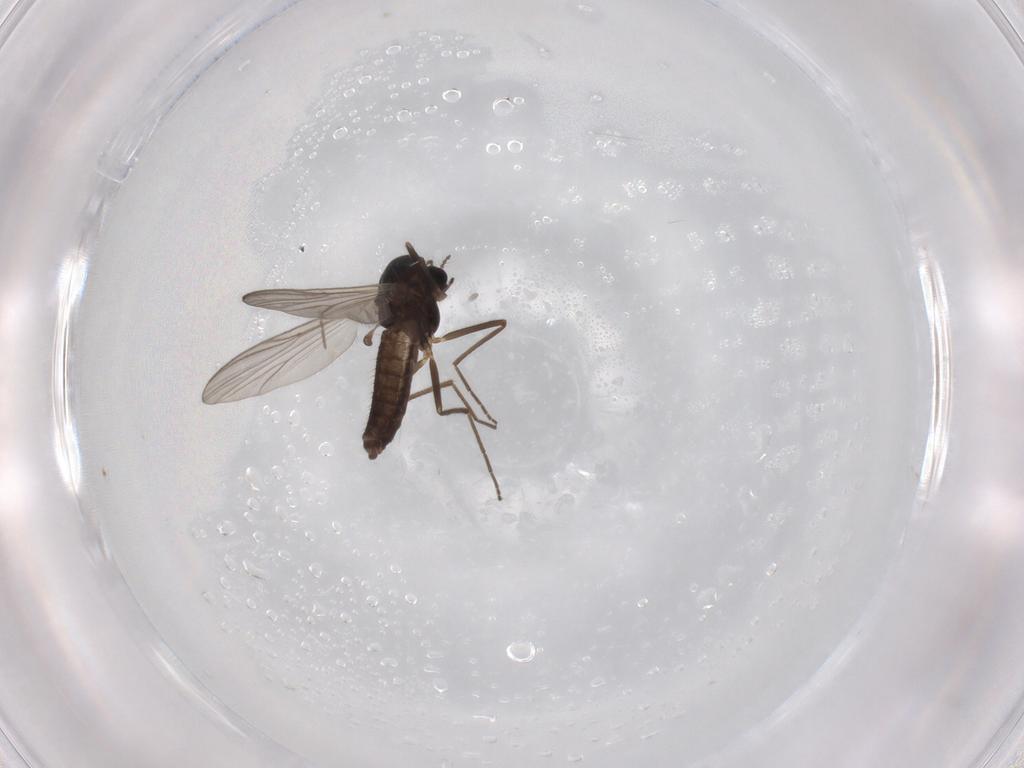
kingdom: Animalia
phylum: Arthropoda
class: Insecta
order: Diptera
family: Chironomidae
